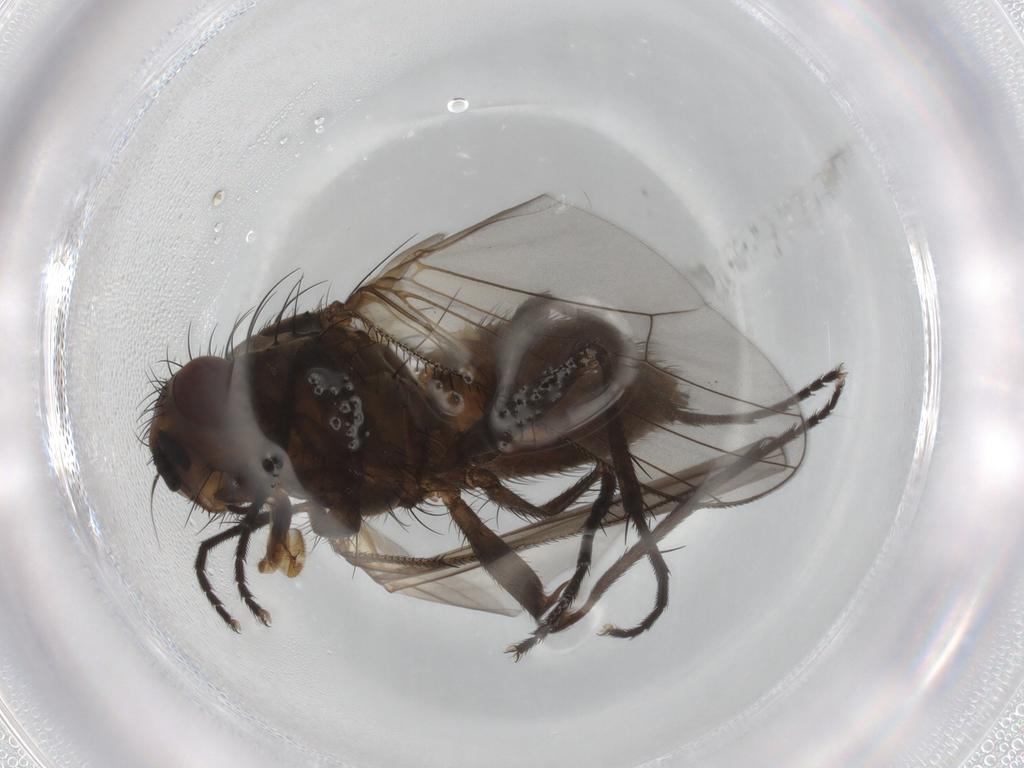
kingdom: Animalia
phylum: Arthropoda
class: Insecta
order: Diptera
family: Anthomyiidae
